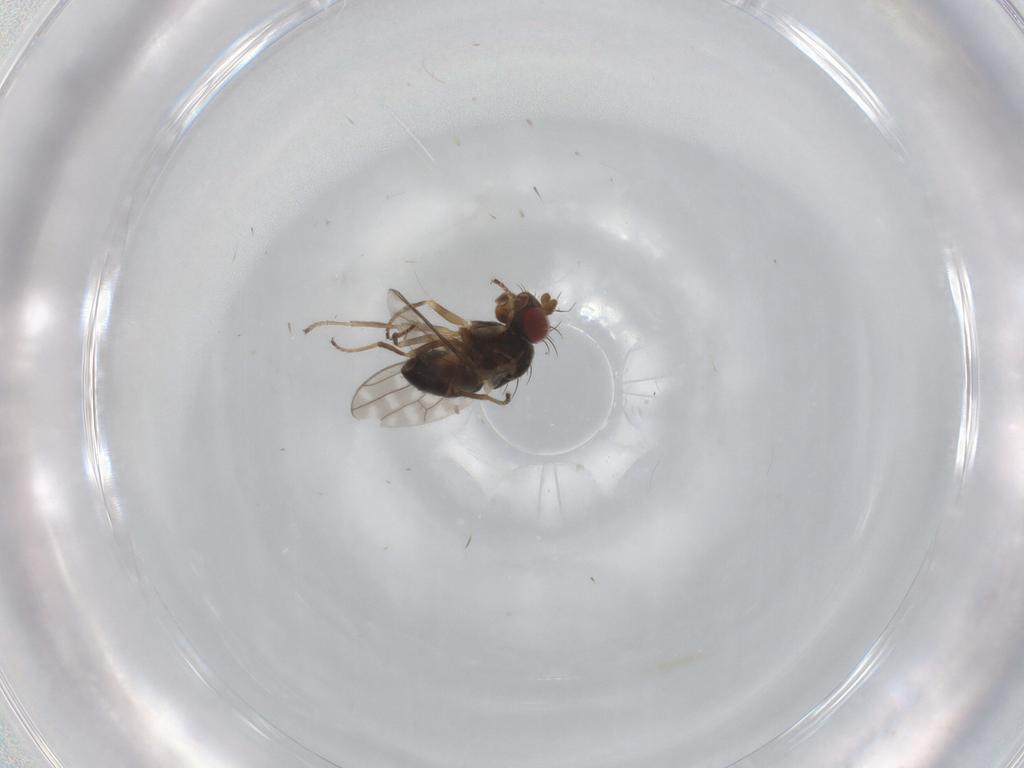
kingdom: Animalia
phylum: Arthropoda
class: Insecta
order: Diptera
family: Ephydridae
